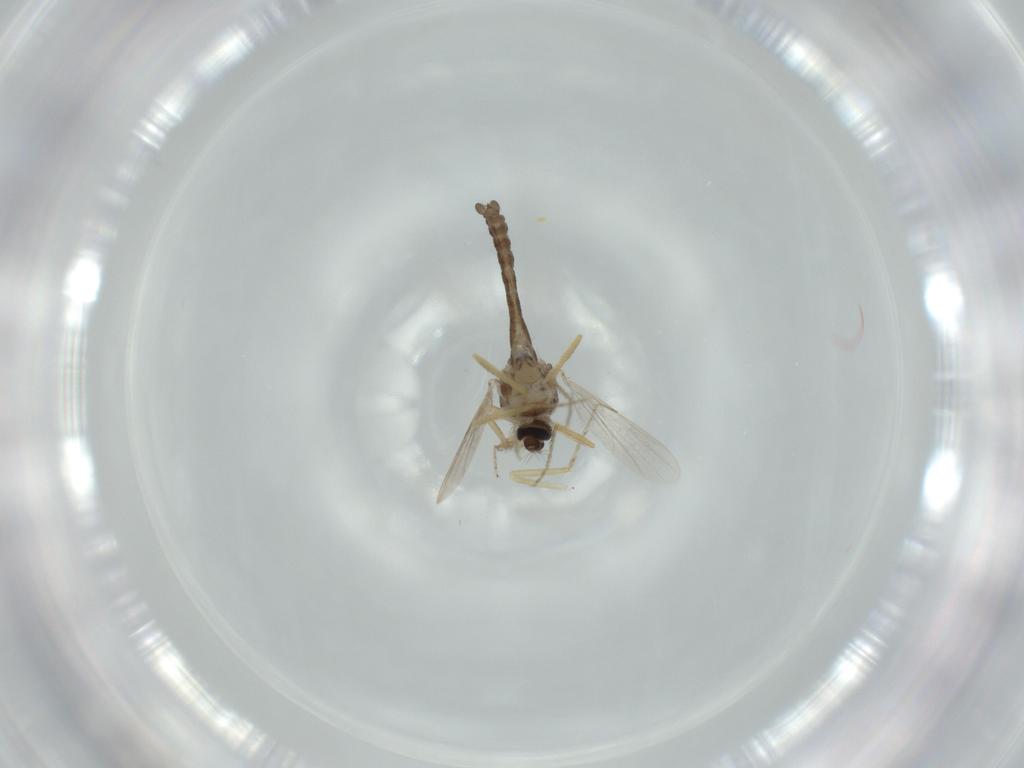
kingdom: Animalia
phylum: Arthropoda
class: Insecta
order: Diptera
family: Ceratopogonidae
